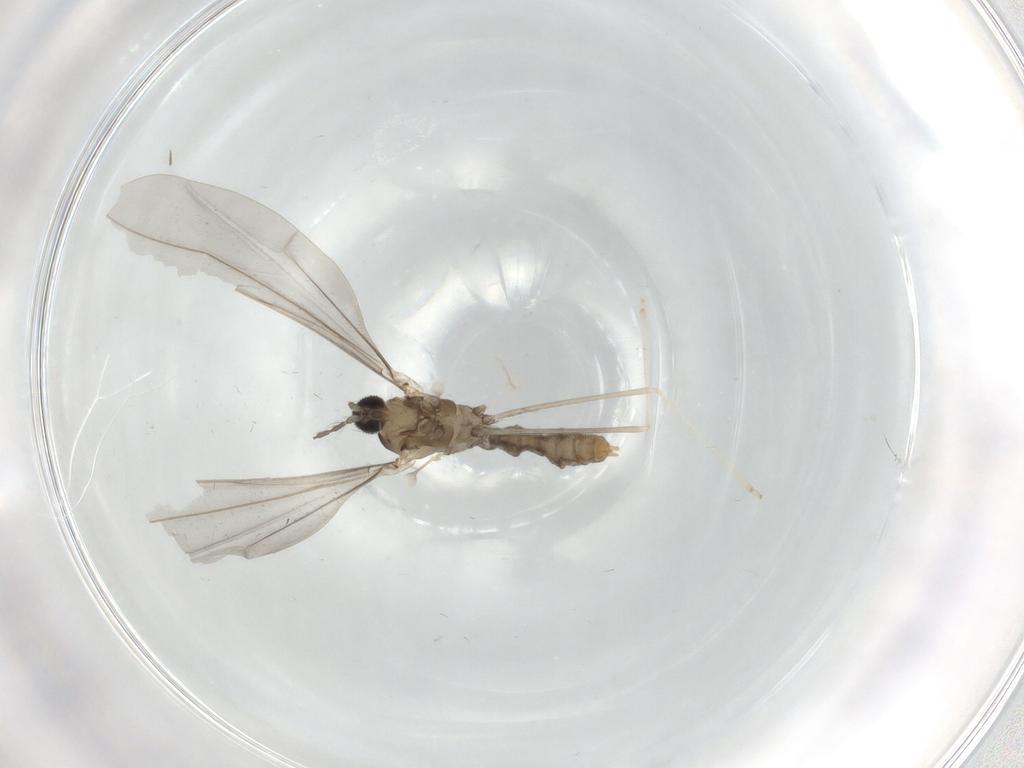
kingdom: Animalia
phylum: Arthropoda
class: Insecta
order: Diptera
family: Cecidomyiidae
